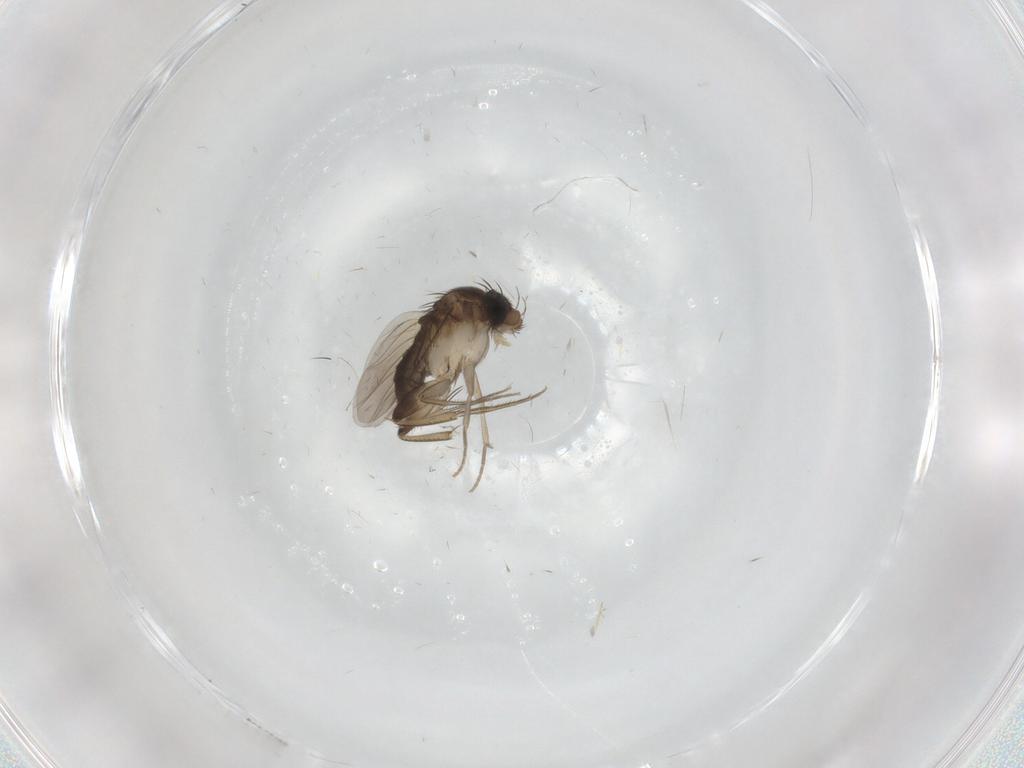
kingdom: Animalia
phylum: Arthropoda
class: Insecta
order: Diptera
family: Phoridae
